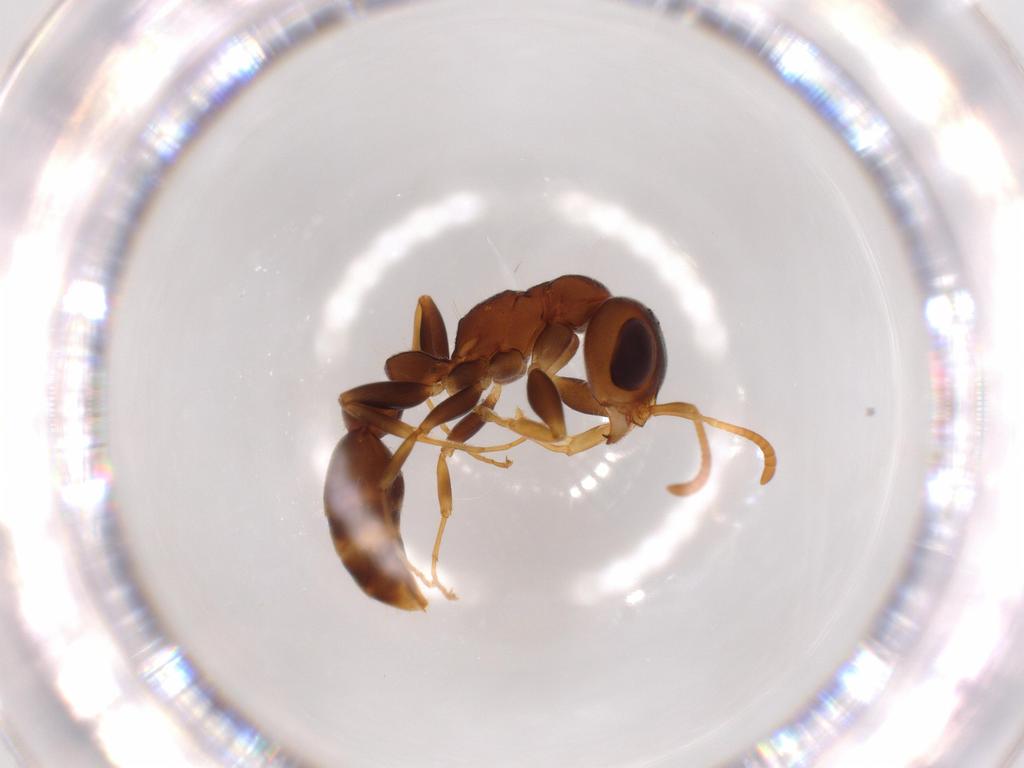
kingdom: Animalia
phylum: Arthropoda
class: Insecta
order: Hymenoptera
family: Formicidae
